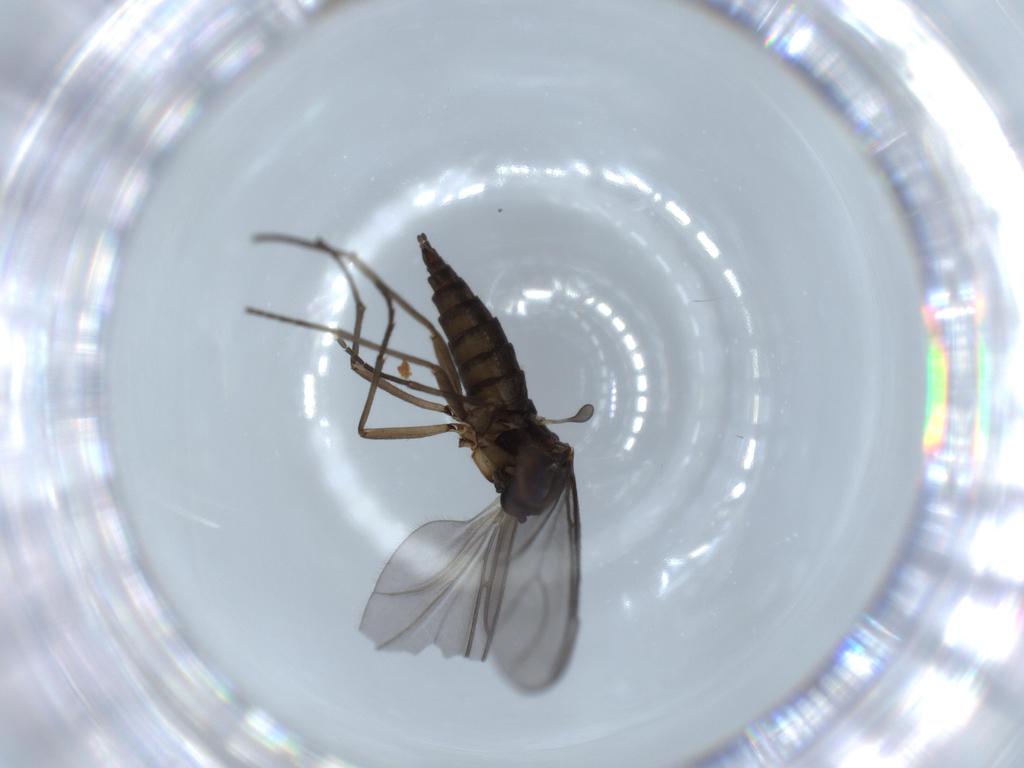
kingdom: Animalia
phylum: Arthropoda
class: Insecta
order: Diptera
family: Sciaridae
